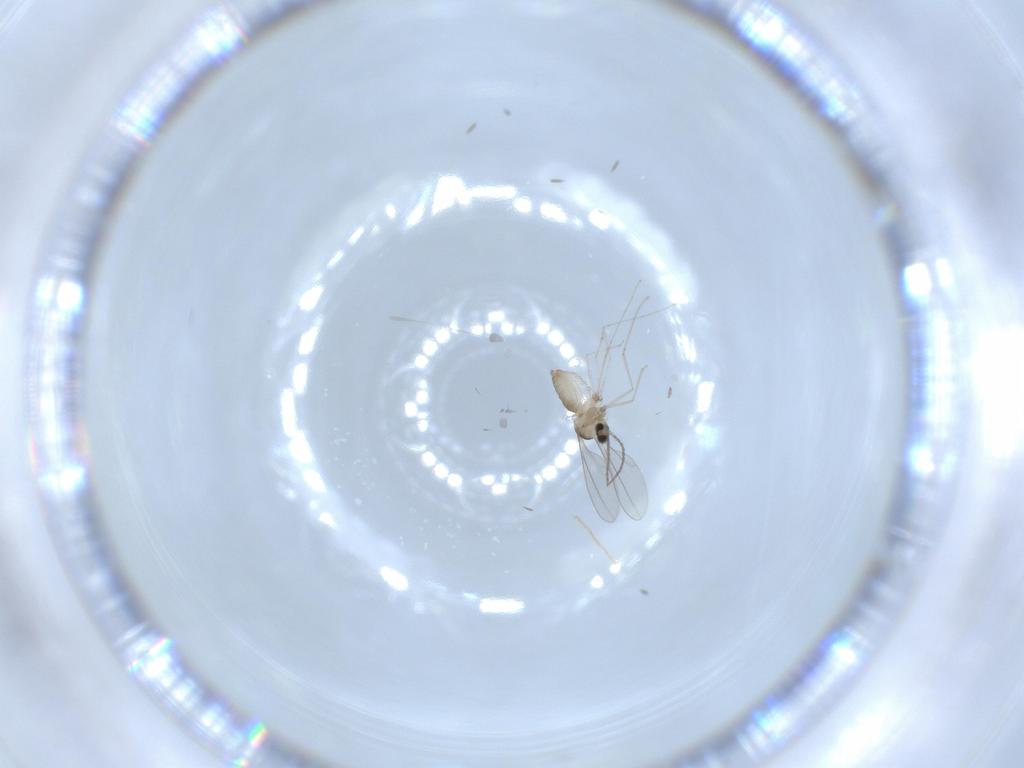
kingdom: Animalia
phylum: Arthropoda
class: Insecta
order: Diptera
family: Cecidomyiidae
